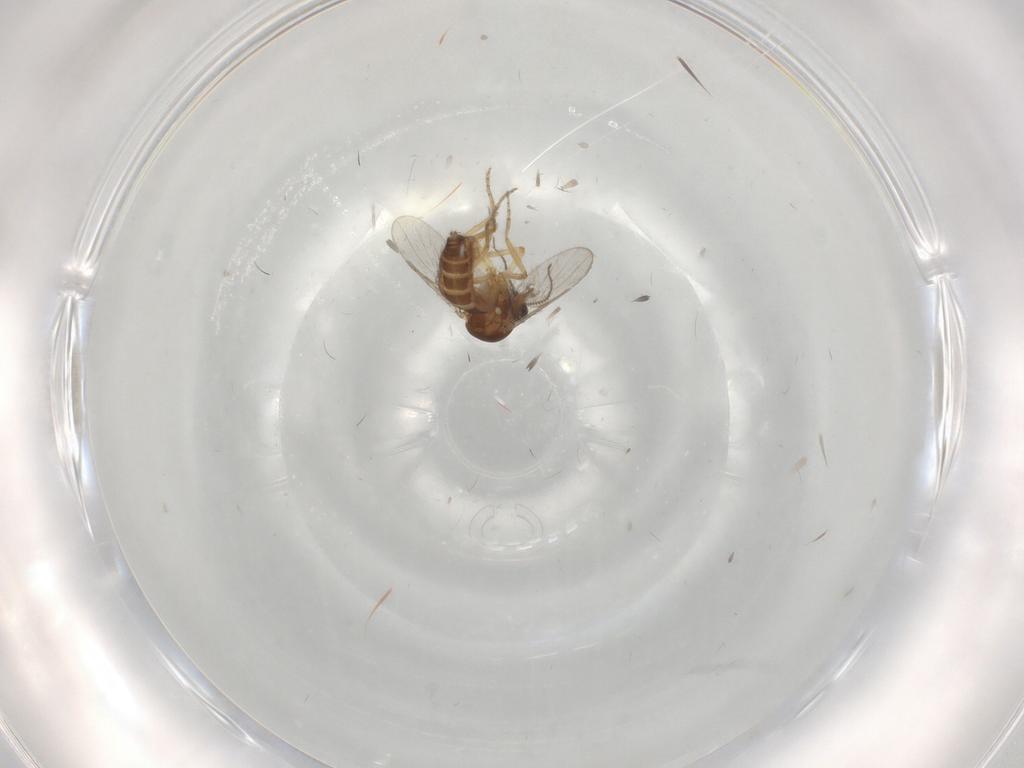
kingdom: Animalia
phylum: Arthropoda
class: Insecta
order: Diptera
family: Ceratopogonidae
